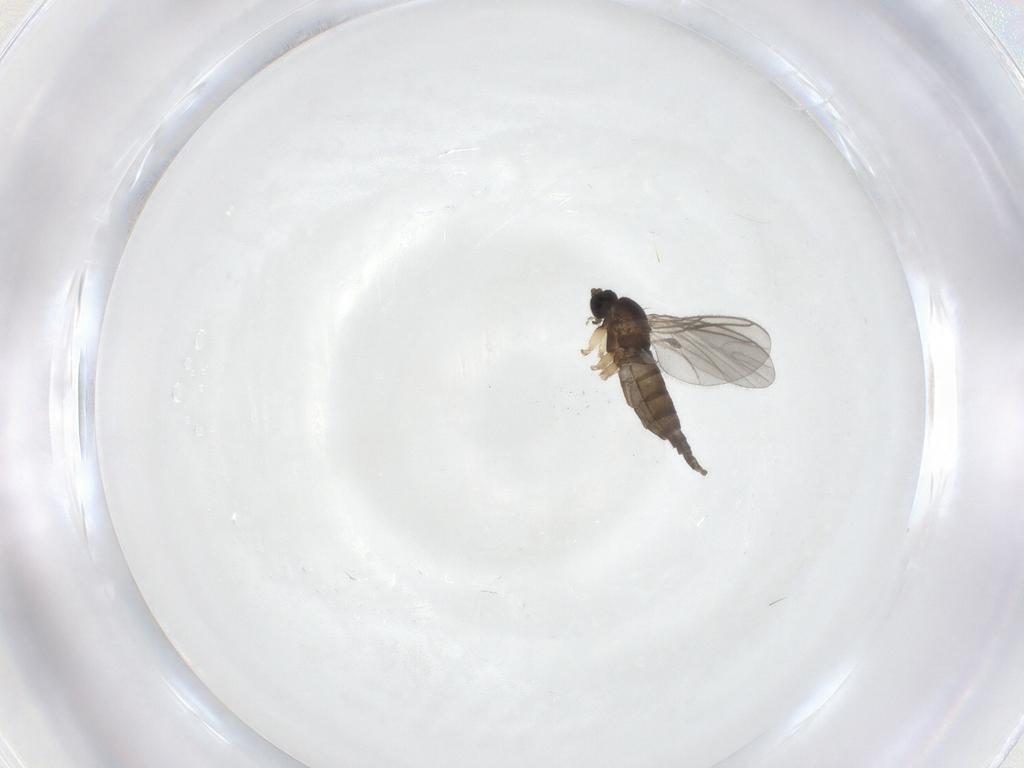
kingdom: Animalia
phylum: Arthropoda
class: Insecta
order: Diptera
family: Sciaridae
